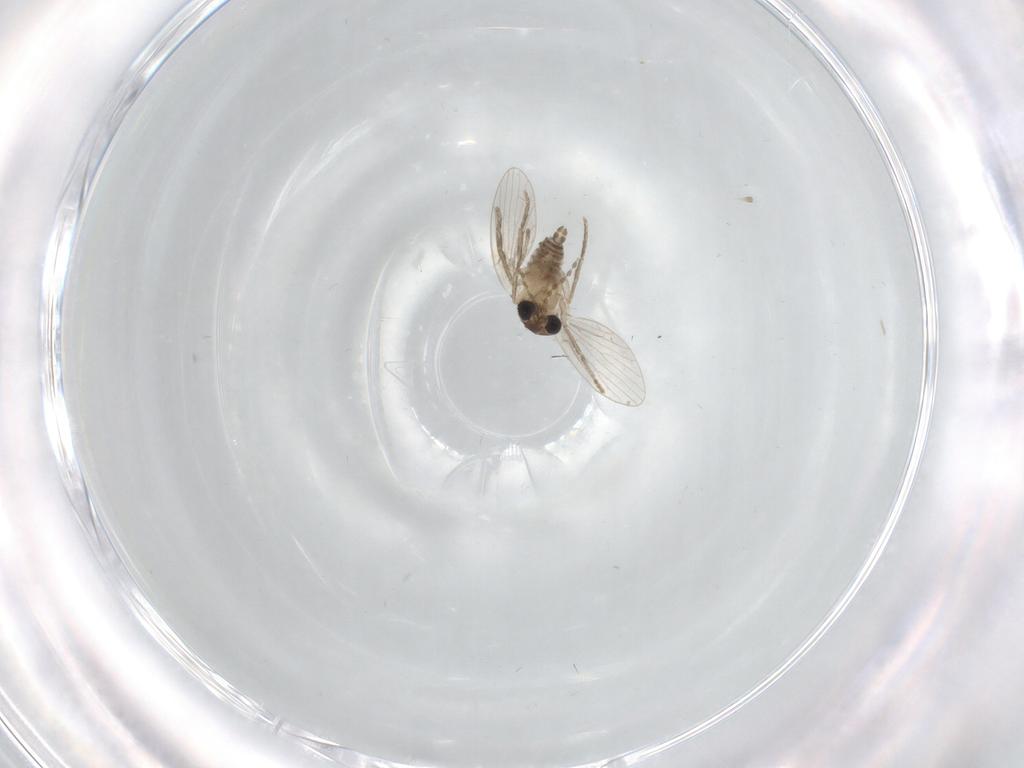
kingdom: Animalia
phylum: Arthropoda
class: Insecta
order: Diptera
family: Psychodidae
